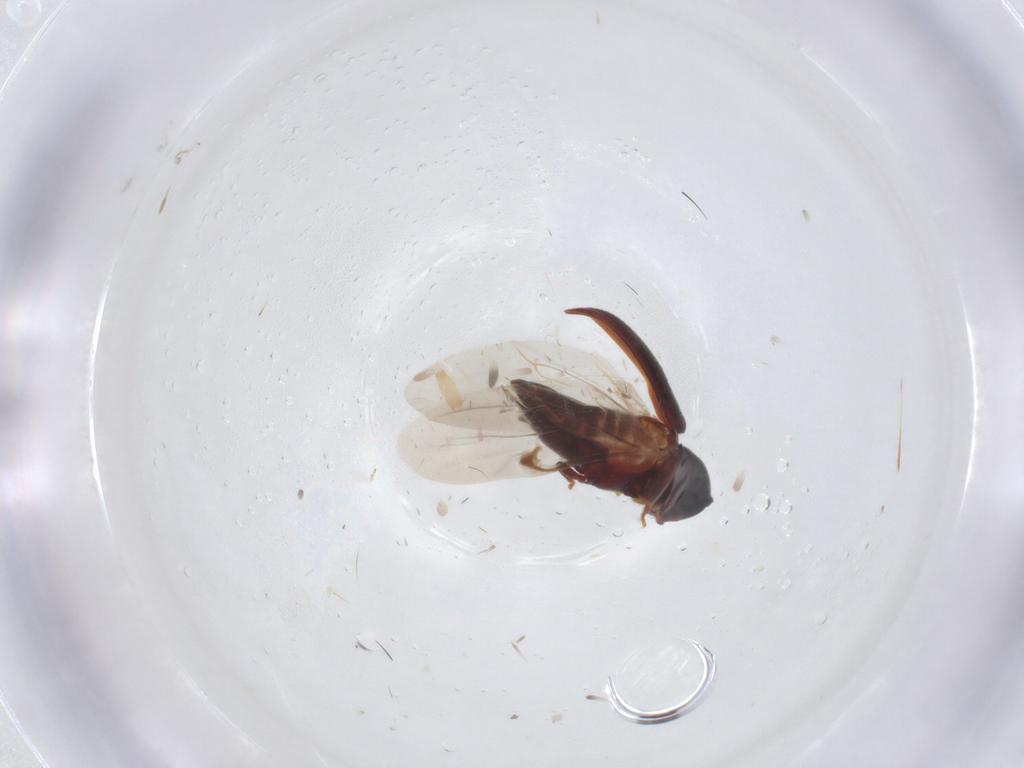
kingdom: Animalia
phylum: Arthropoda
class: Insecta
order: Coleoptera
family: Ptinidae
